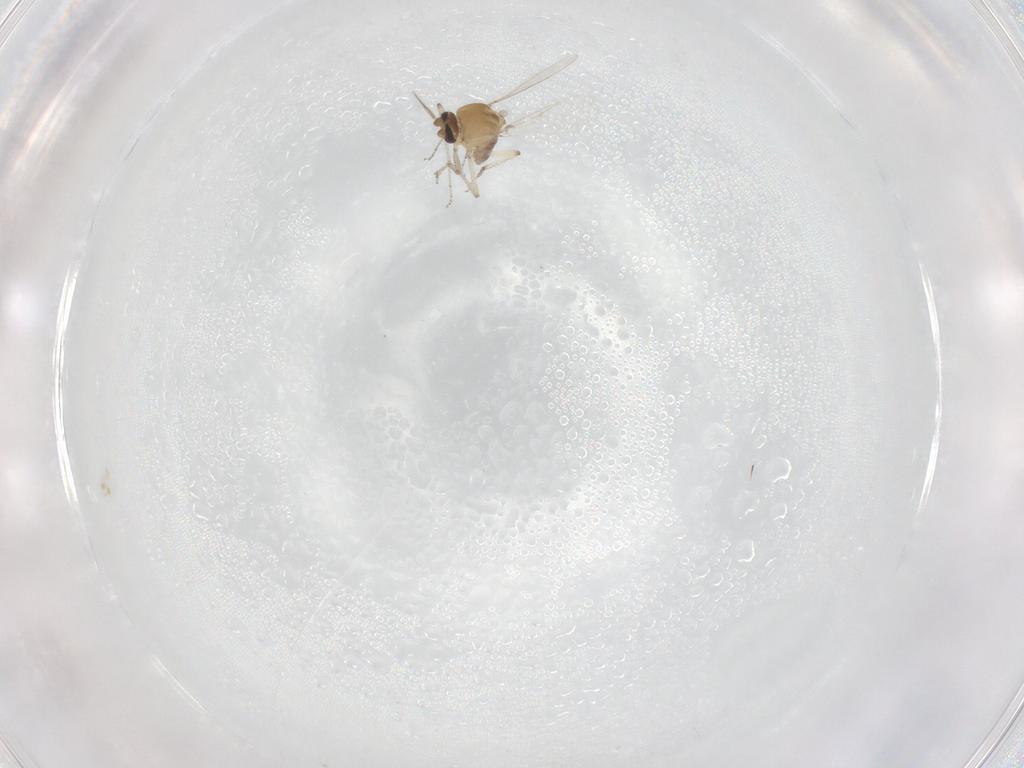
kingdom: Animalia
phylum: Arthropoda
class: Insecta
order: Diptera
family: Ceratopogonidae
